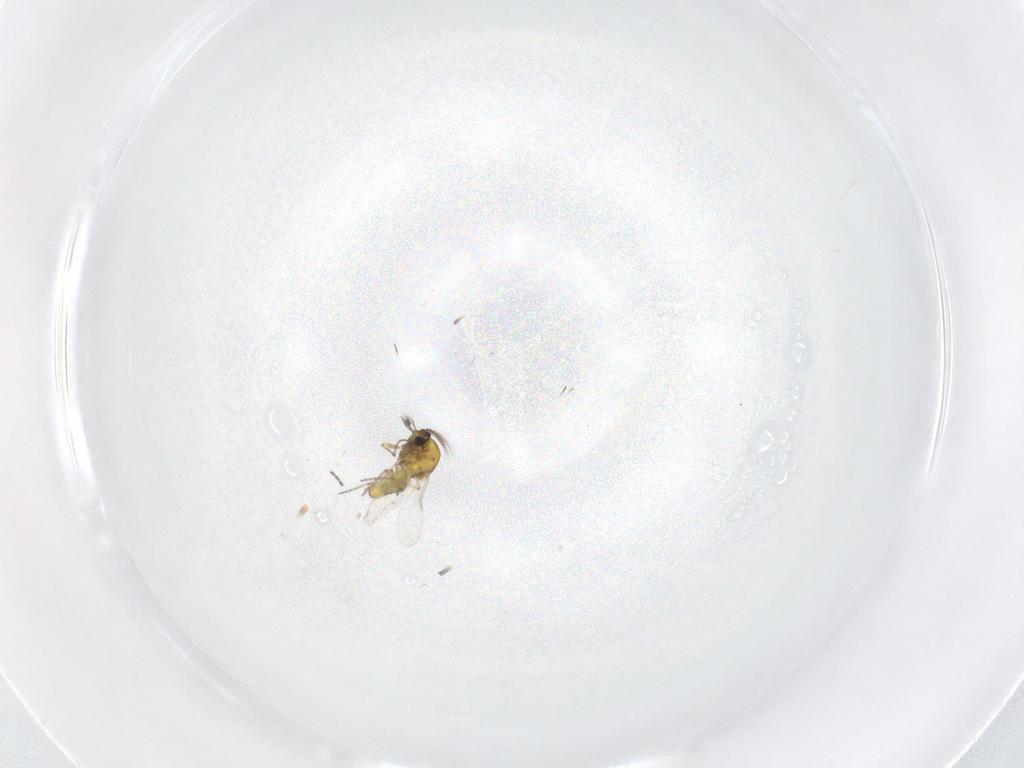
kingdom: Animalia
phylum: Arthropoda
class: Insecta
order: Diptera
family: Ceratopogonidae
